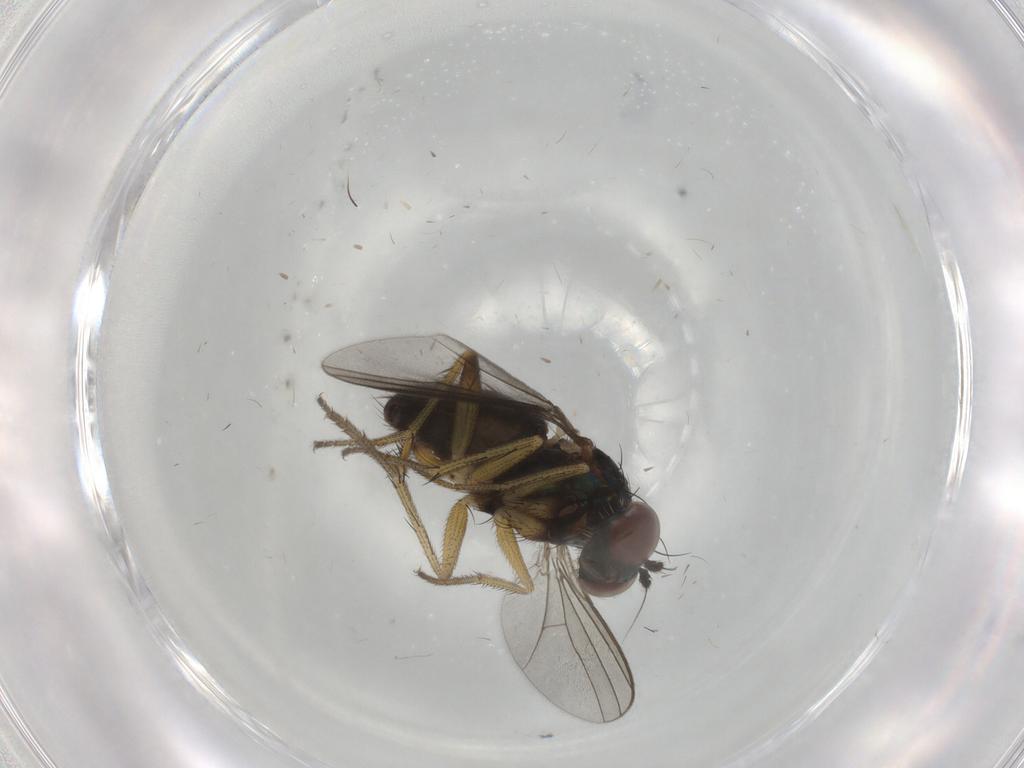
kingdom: Animalia
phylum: Arthropoda
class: Insecta
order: Diptera
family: Dolichopodidae
